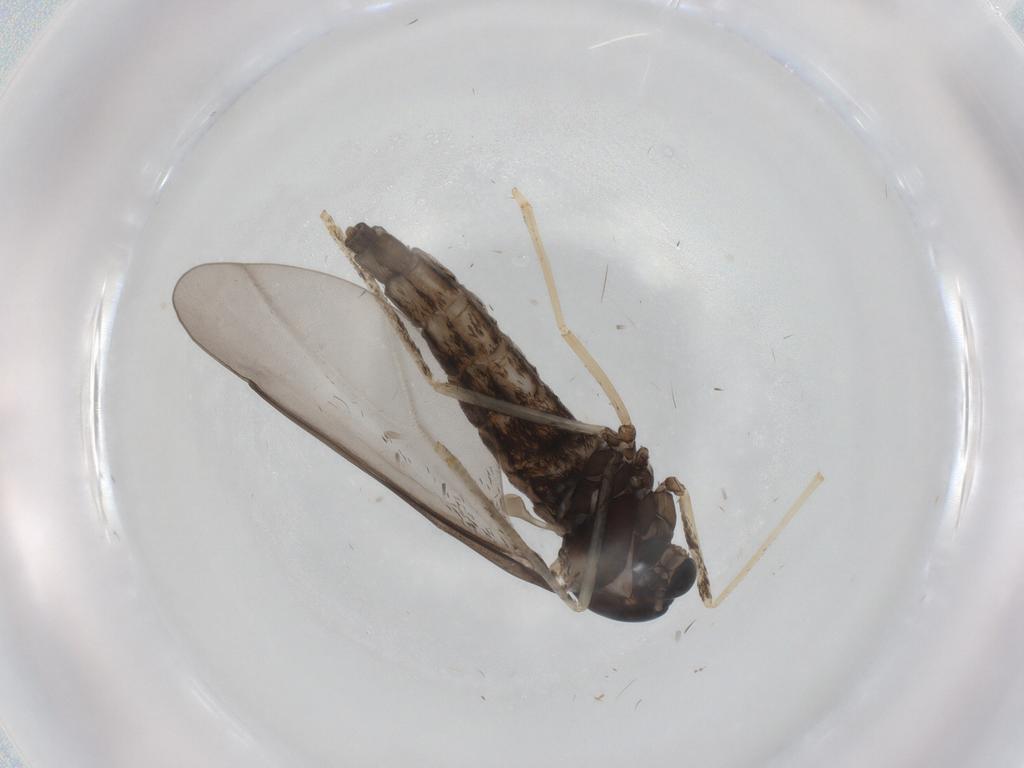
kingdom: Animalia
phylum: Arthropoda
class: Insecta
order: Diptera
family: Cecidomyiidae
